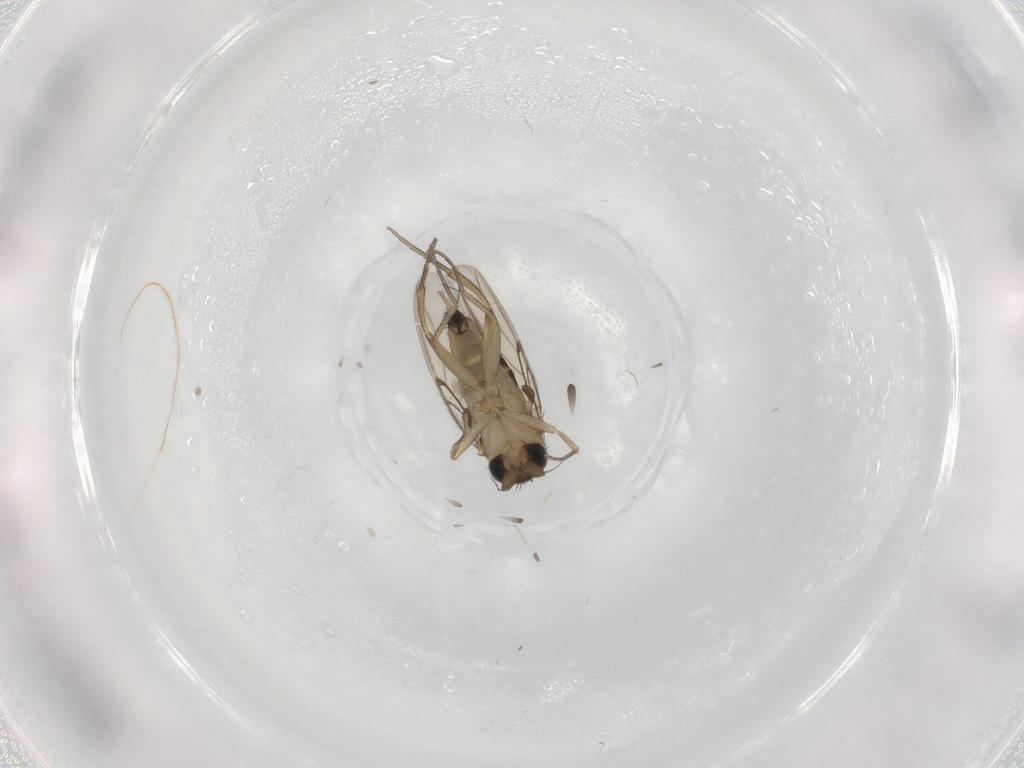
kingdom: Animalia
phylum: Arthropoda
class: Insecta
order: Diptera
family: Phoridae
